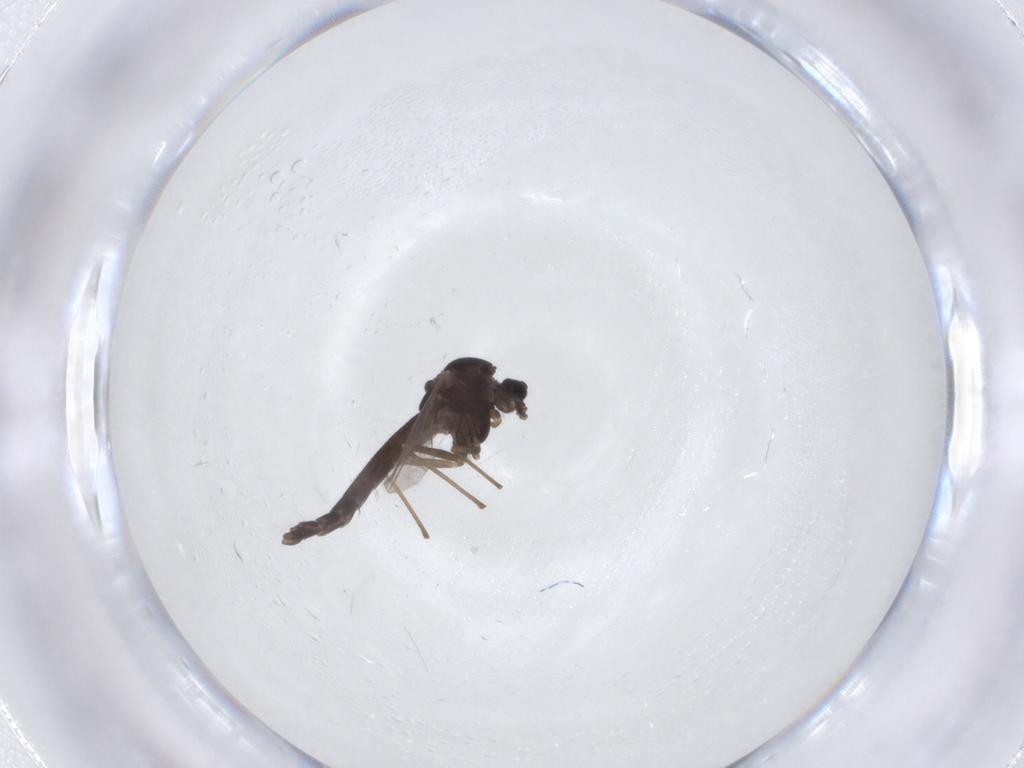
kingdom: Animalia
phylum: Arthropoda
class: Insecta
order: Diptera
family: Chironomidae
